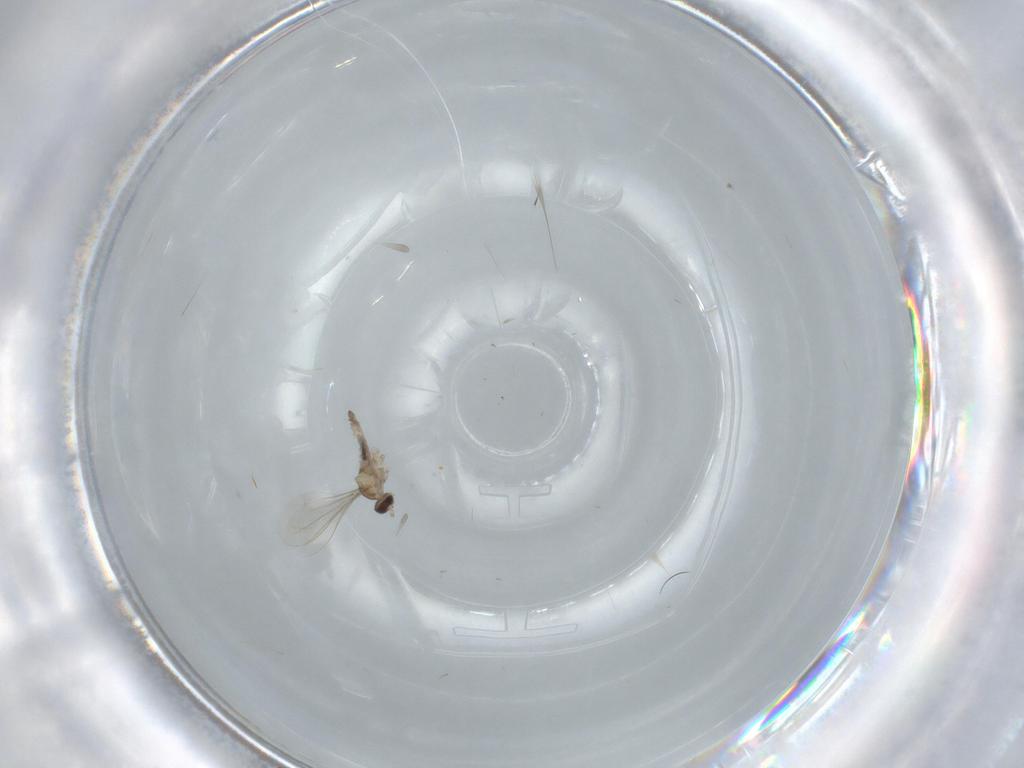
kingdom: Animalia
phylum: Arthropoda
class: Insecta
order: Diptera
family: Cecidomyiidae
